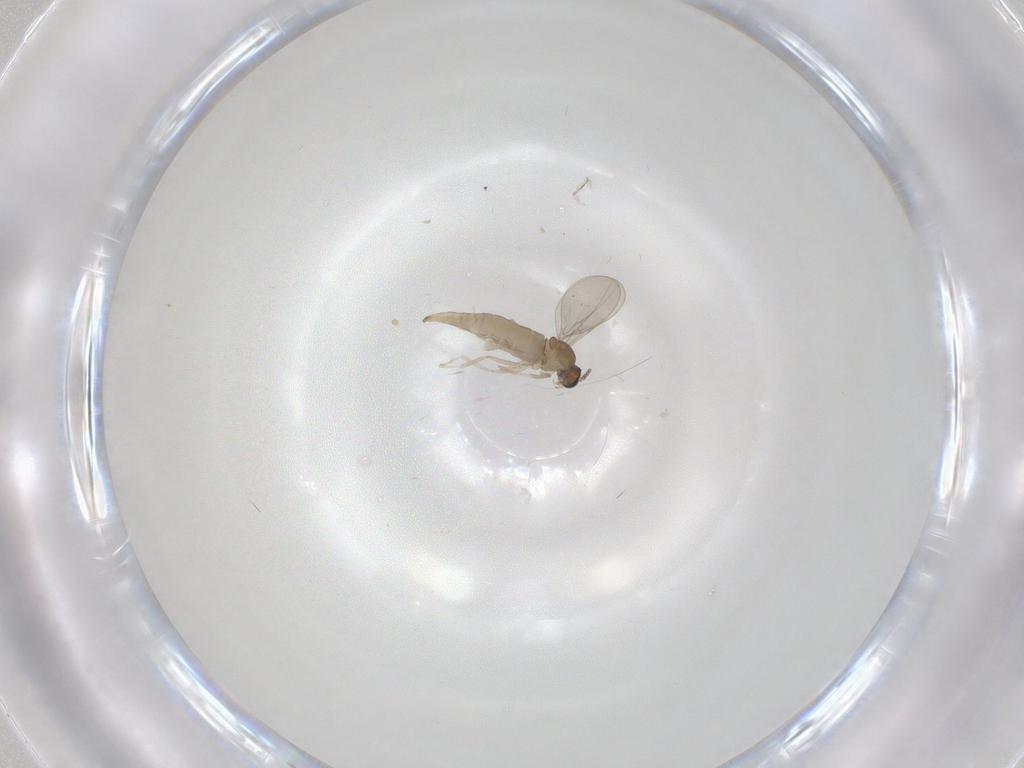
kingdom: Animalia
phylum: Arthropoda
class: Insecta
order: Diptera
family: Cecidomyiidae
